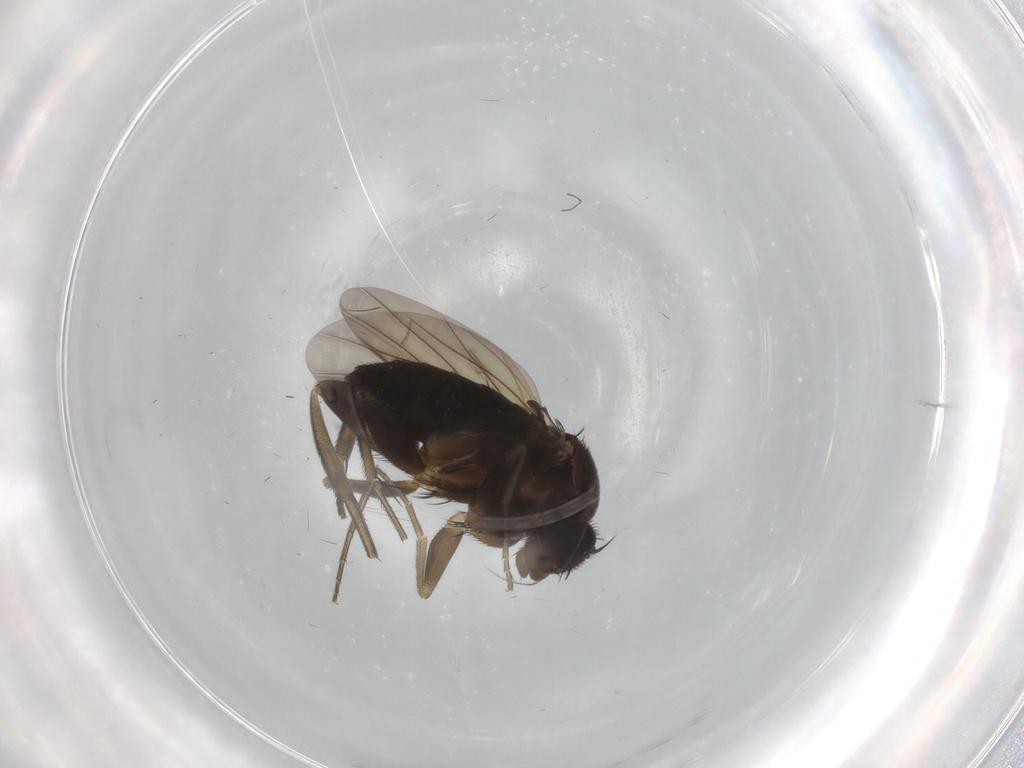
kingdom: Animalia
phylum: Arthropoda
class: Insecta
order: Diptera
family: Phoridae
